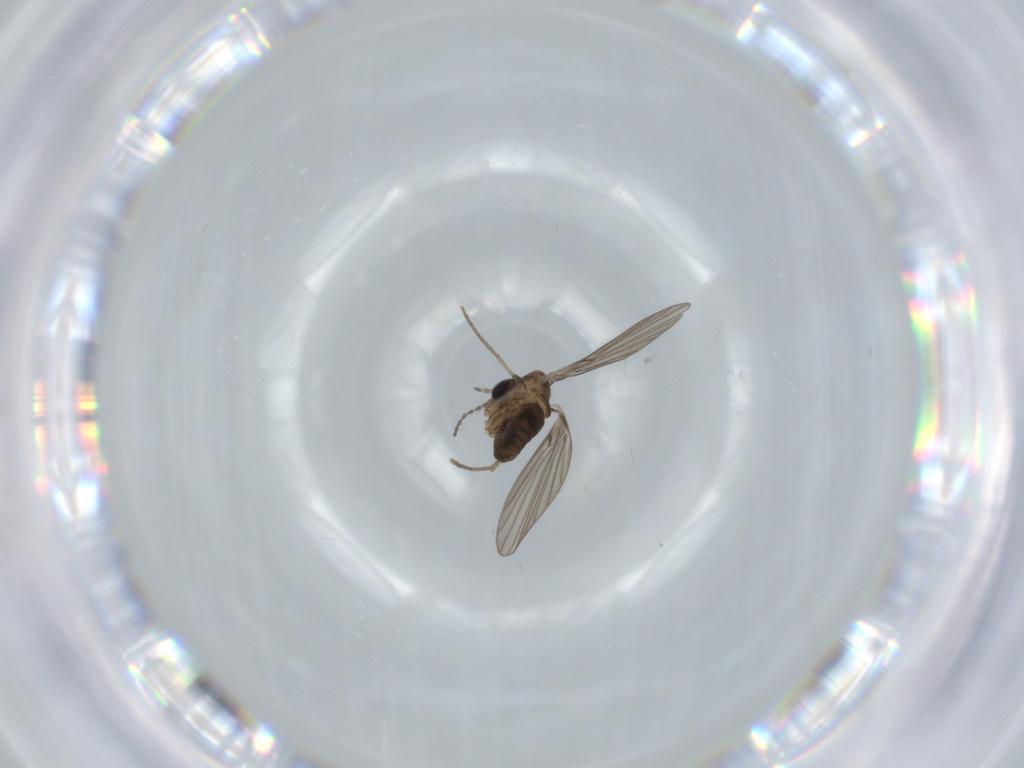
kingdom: Animalia
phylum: Arthropoda
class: Insecta
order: Diptera
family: Psychodidae
